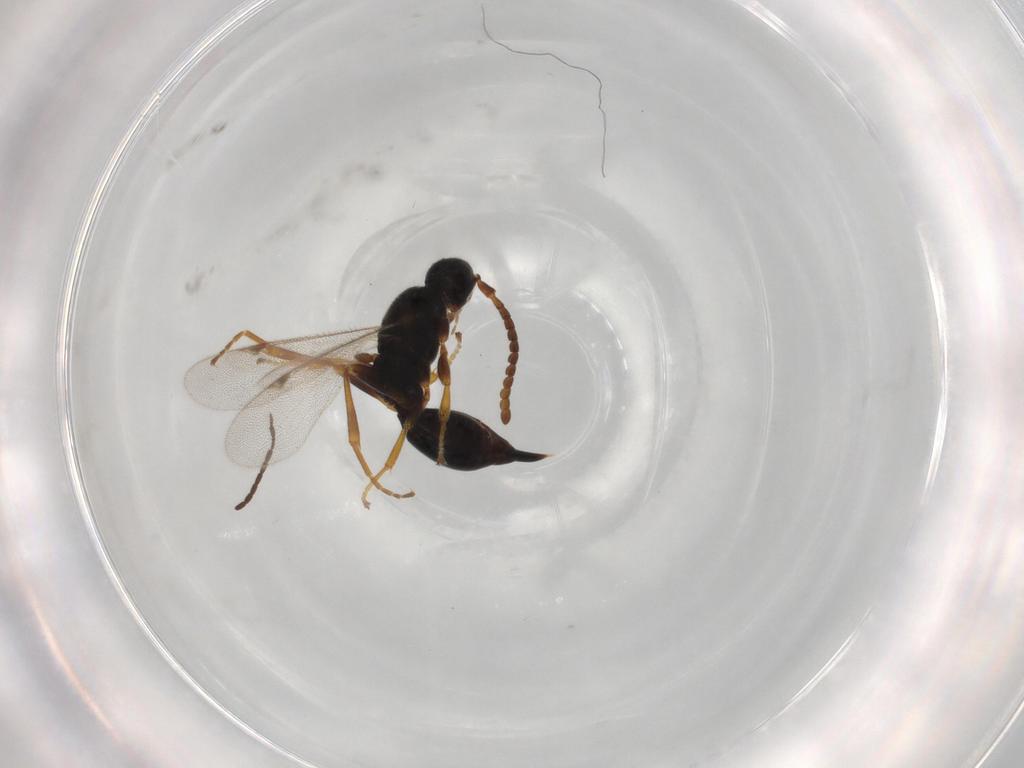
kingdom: Animalia
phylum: Arthropoda
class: Insecta
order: Hymenoptera
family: Proctotrupidae
